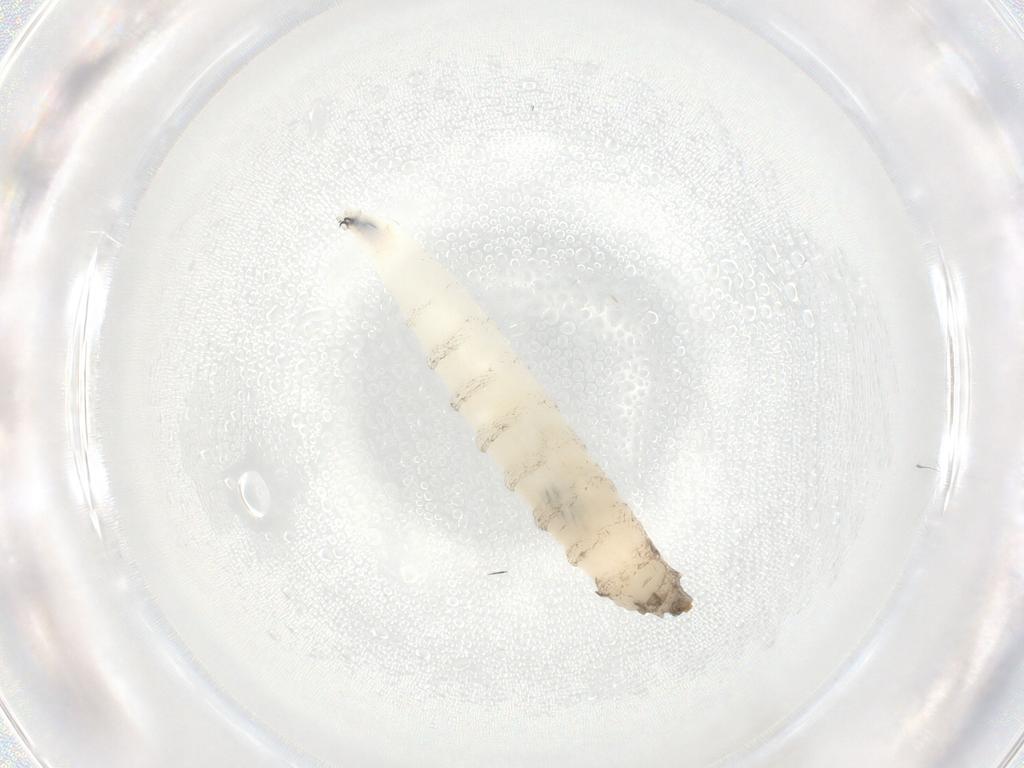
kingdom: Animalia
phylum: Arthropoda
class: Insecta
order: Diptera
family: Drosophilidae
